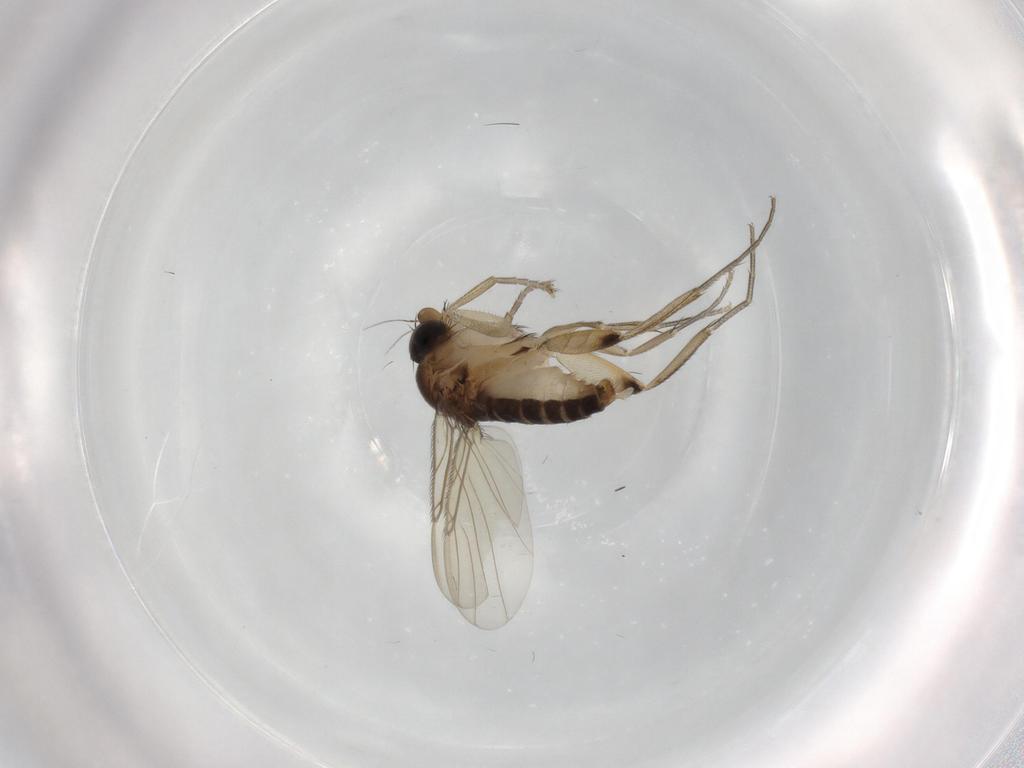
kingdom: Animalia
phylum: Arthropoda
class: Insecta
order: Diptera
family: Phoridae
